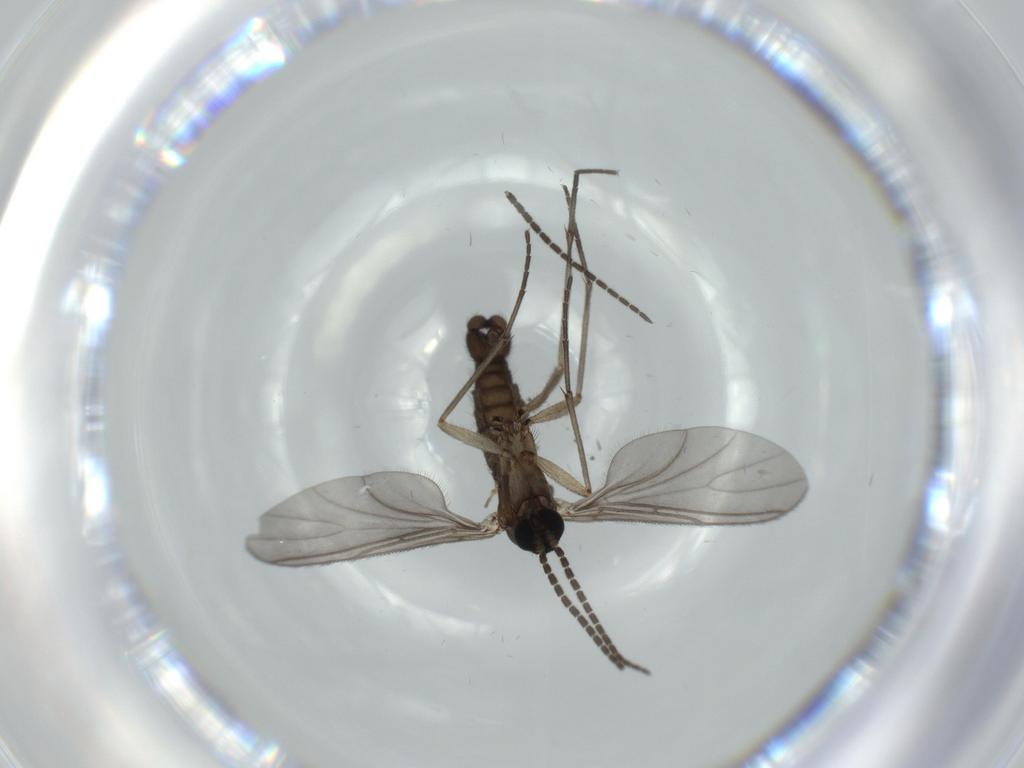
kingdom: Animalia
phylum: Arthropoda
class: Insecta
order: Diptera
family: Sciaridae
